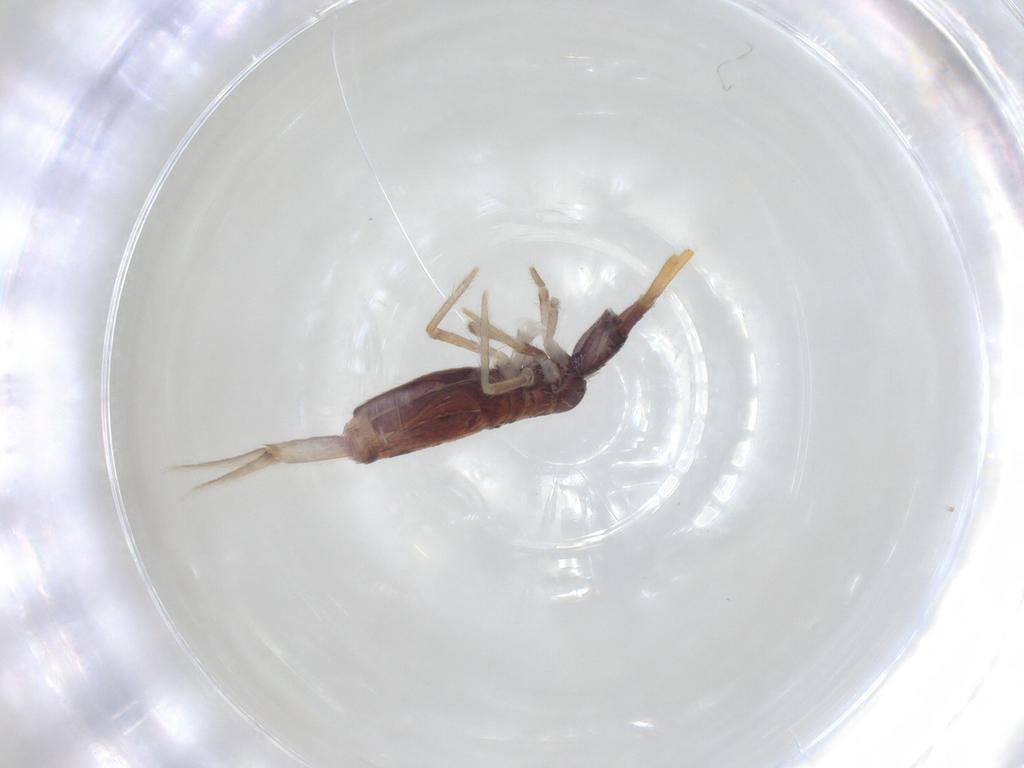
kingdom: Animalia
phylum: Arthropoda
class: Collembola
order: Entomobryomorpha
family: Entomobryidae
